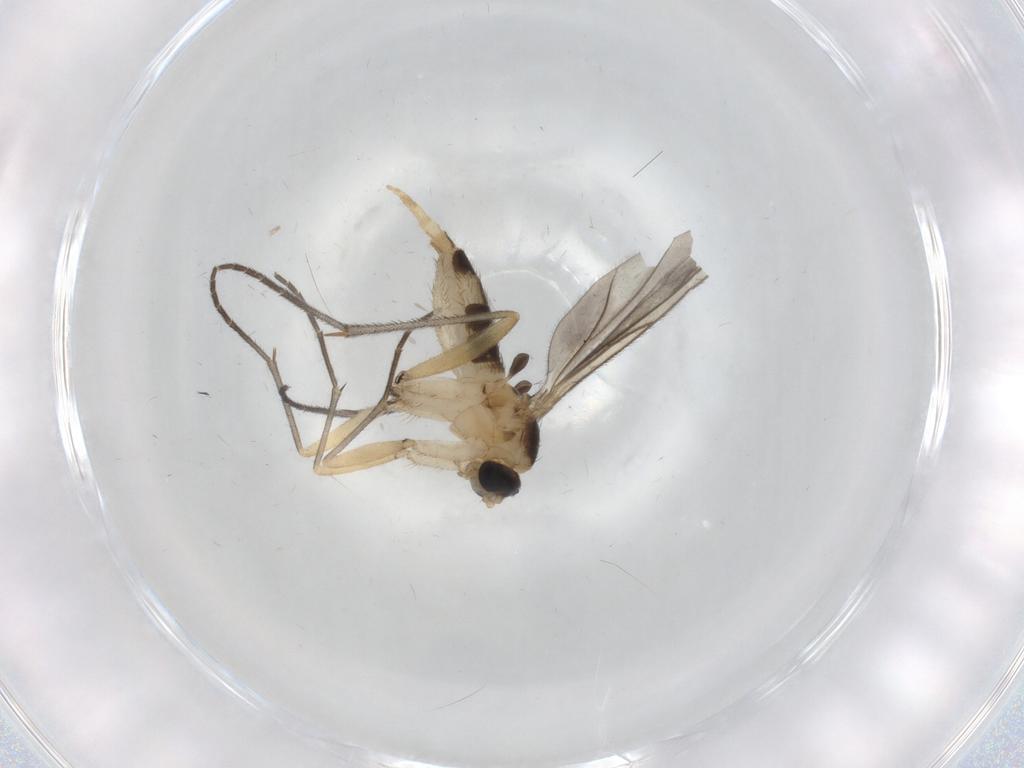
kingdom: Animalia
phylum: Arthropoda
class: Insecta
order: Diptera
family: Sciaridae
